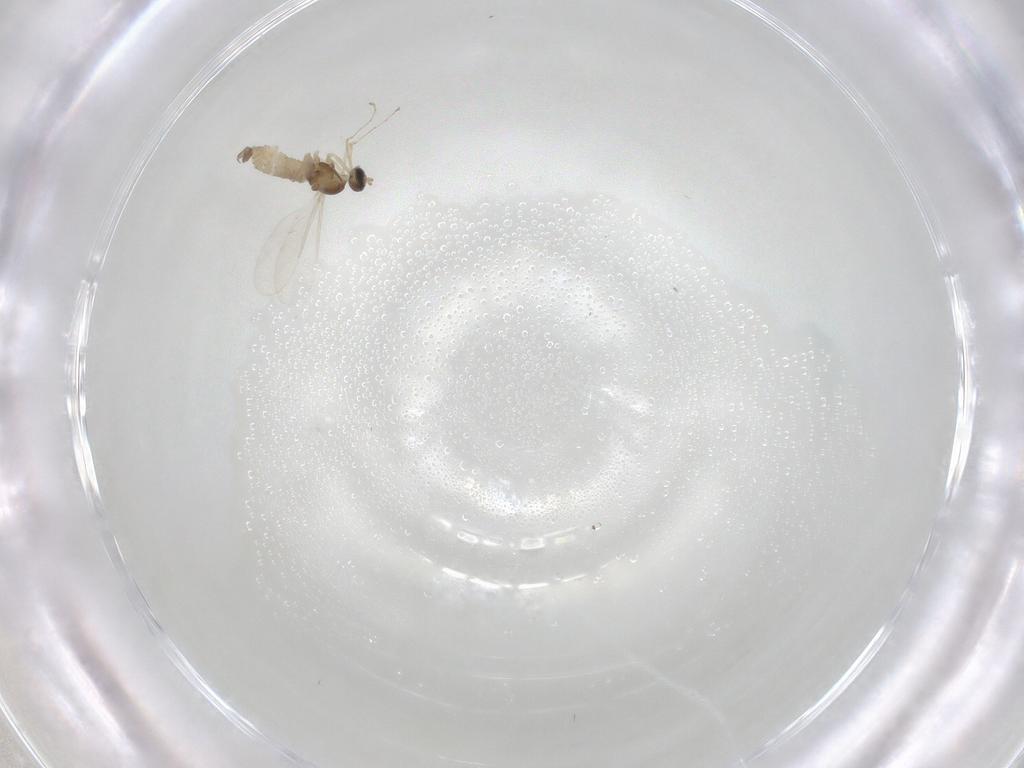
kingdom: Animalia
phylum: Arthropoda
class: Insecta
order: Diptera
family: Cecidomyiidae
